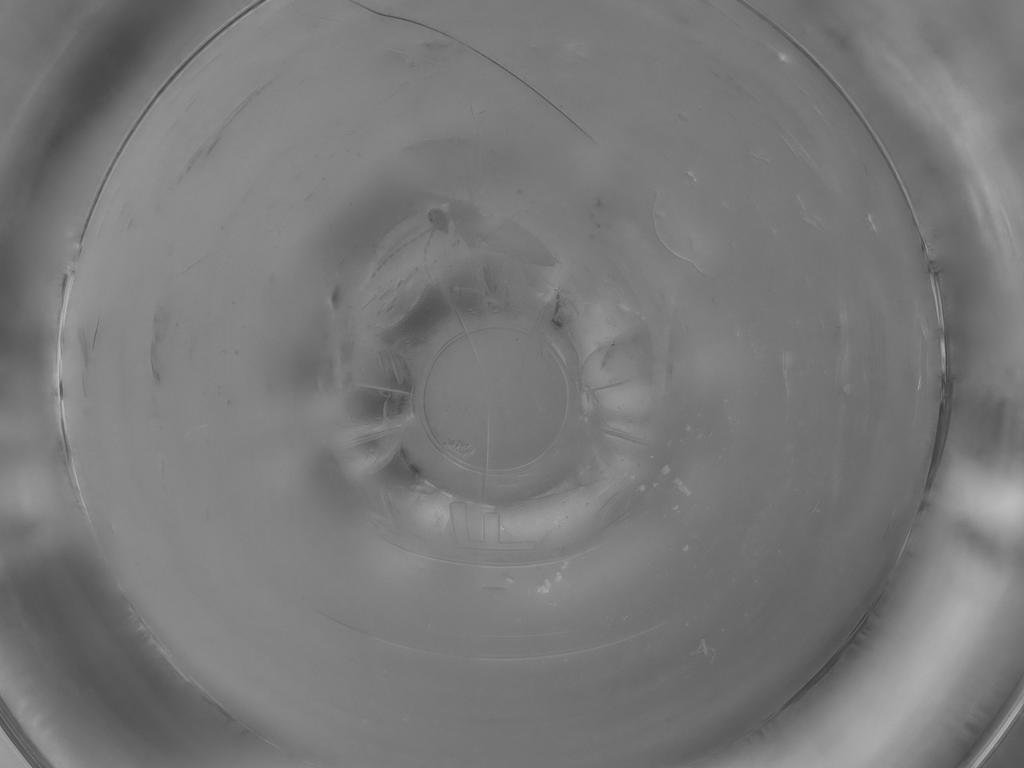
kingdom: Animalia
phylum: Arthropoda
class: Insecta
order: Diptera
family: Cecidomyiidae
